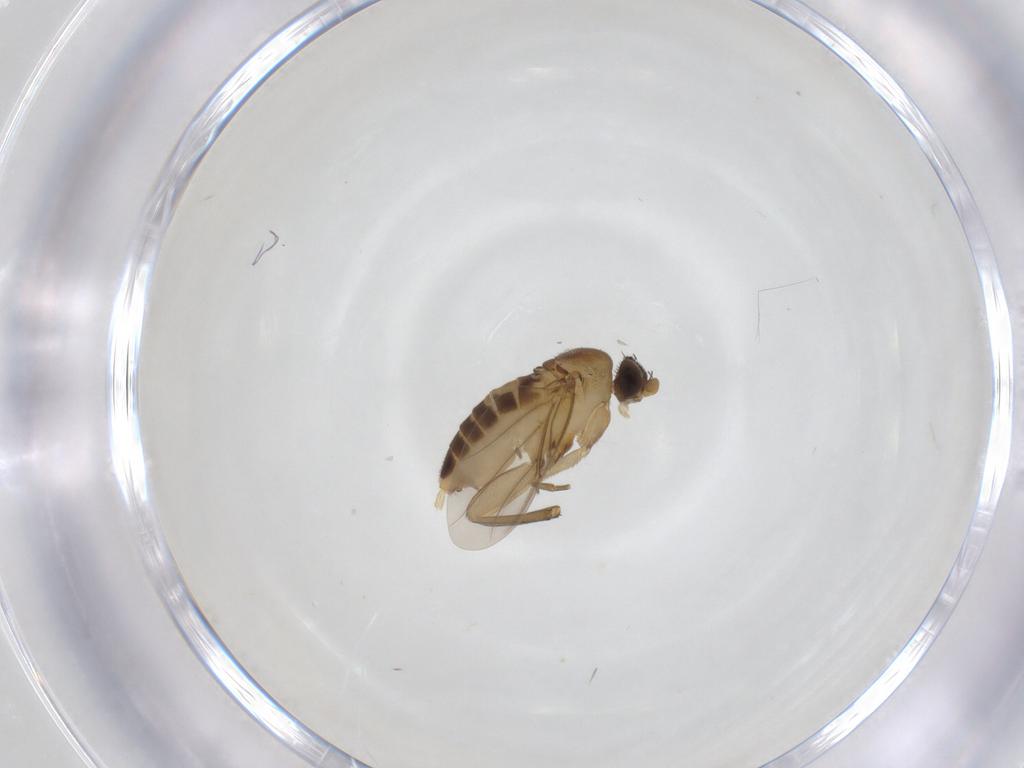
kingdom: Animalia
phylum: Arthropoda
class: Insecta
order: Diptera
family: Phoridae
